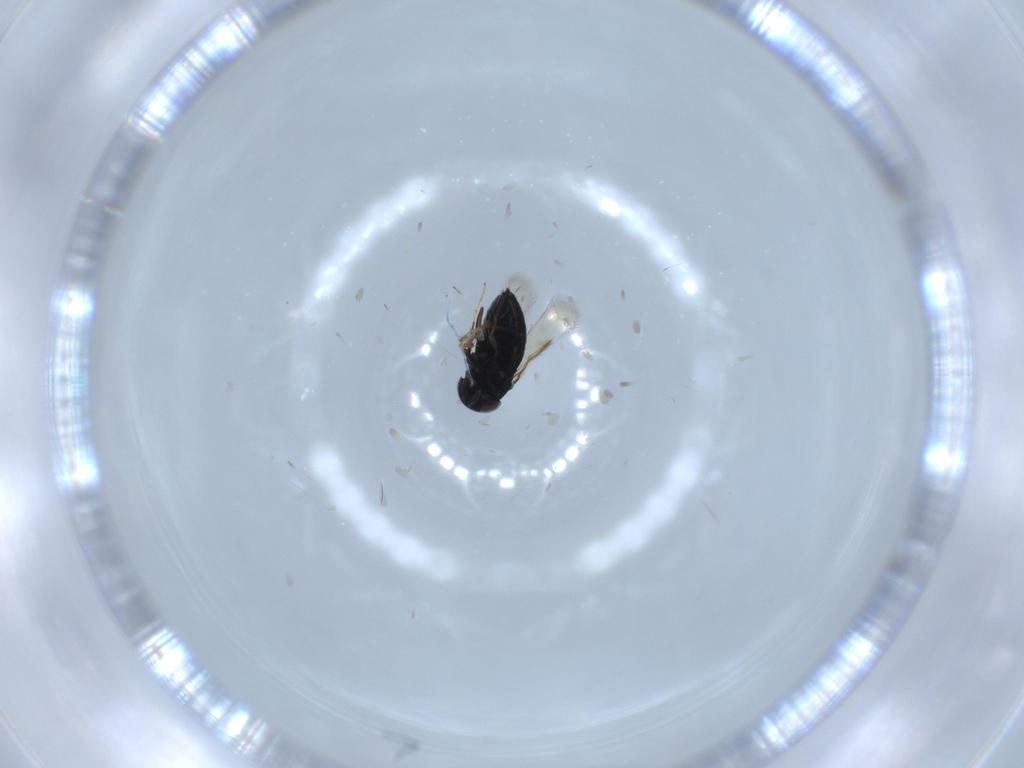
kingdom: Animalia
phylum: Arthropoda
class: Insecta
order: Hymenoptera
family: Signiphoridae
